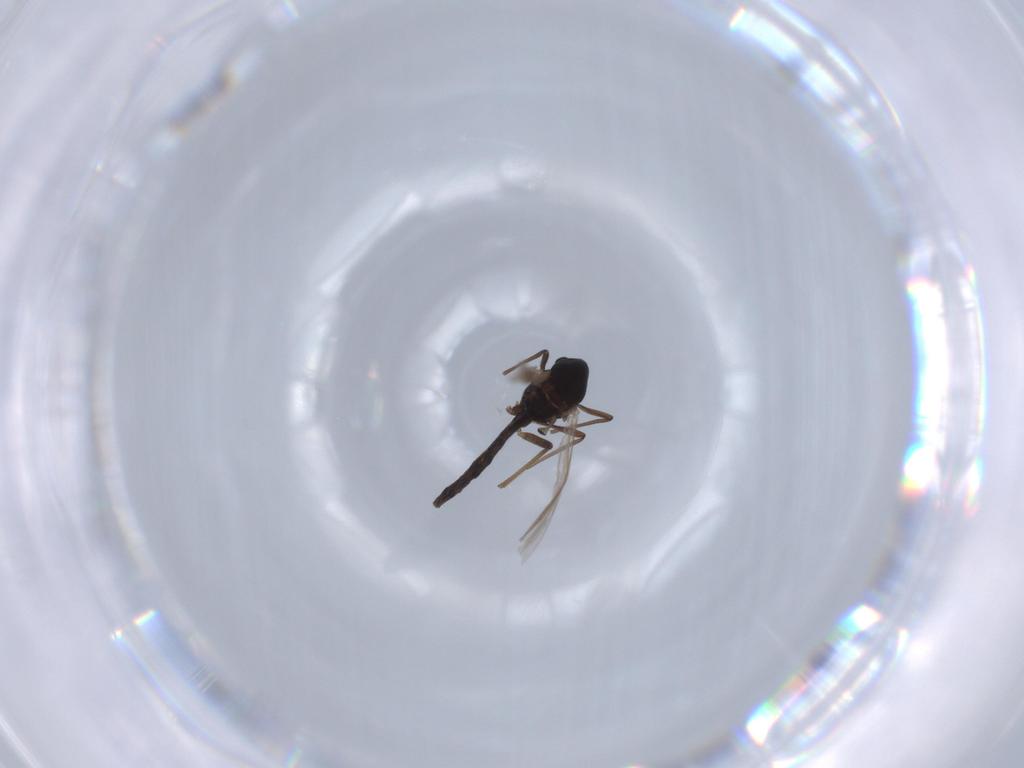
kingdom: Animalia
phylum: Arthropoda
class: Insecta
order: Diptera
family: Chironomidae
